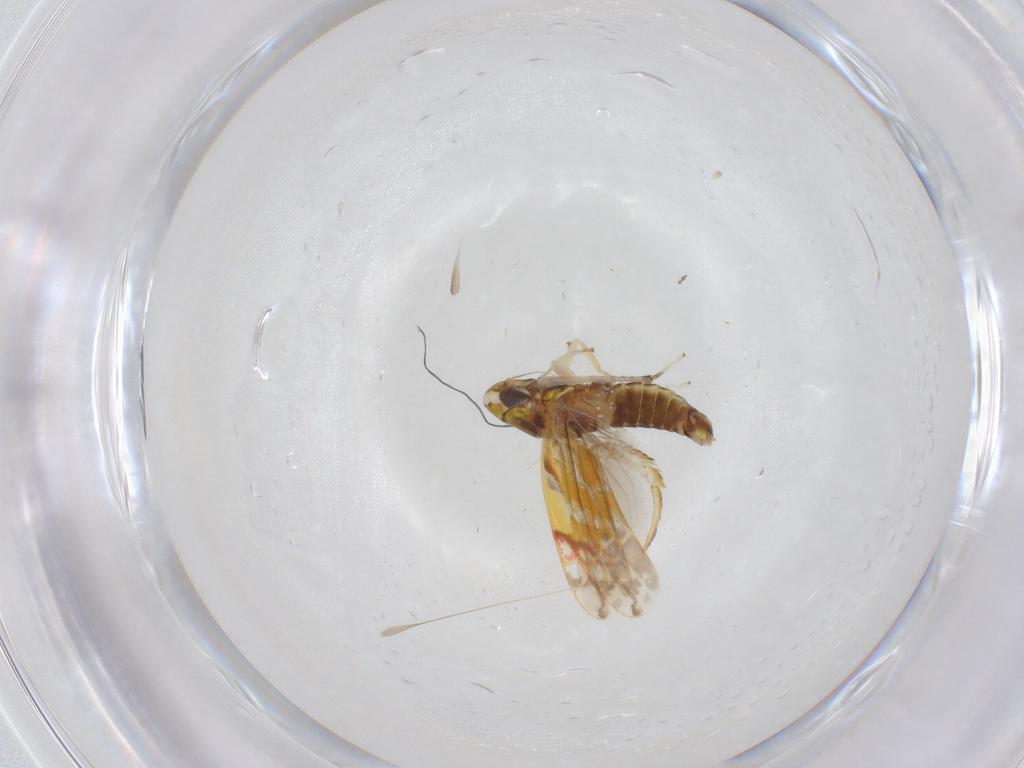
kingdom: Animalia
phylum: Arthropoda
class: Insecta
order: Hemiptera
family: Cicadellidae
